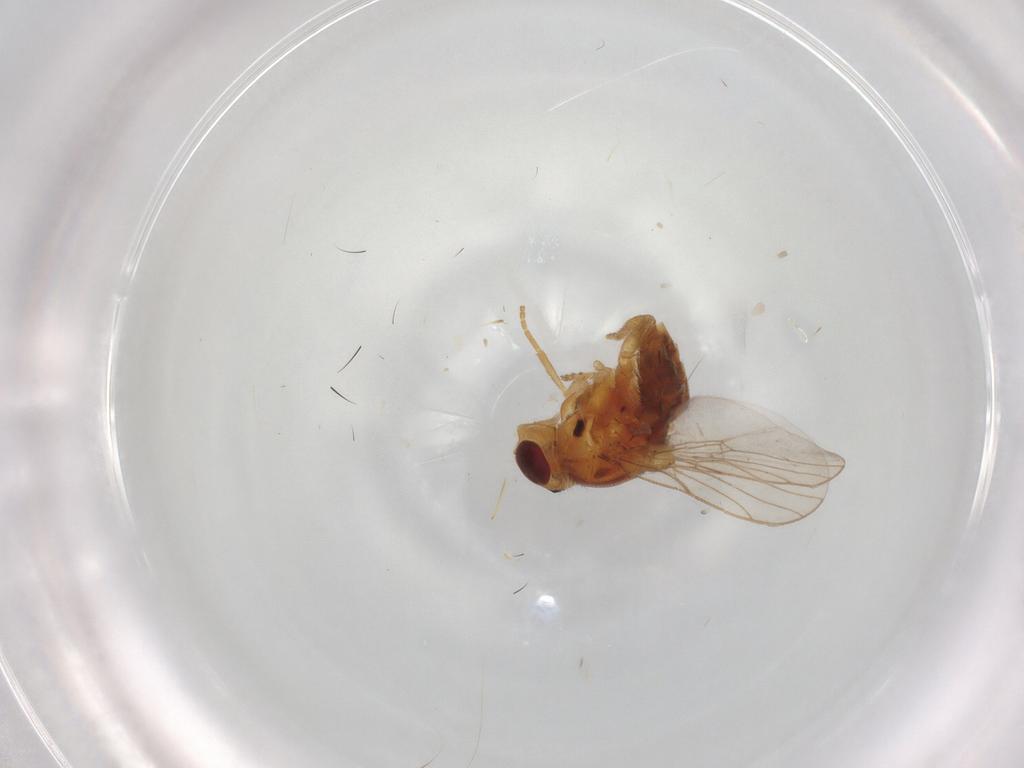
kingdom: Animalia
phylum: Arthropoda
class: Insecta
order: Diptera
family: Chloropidae
